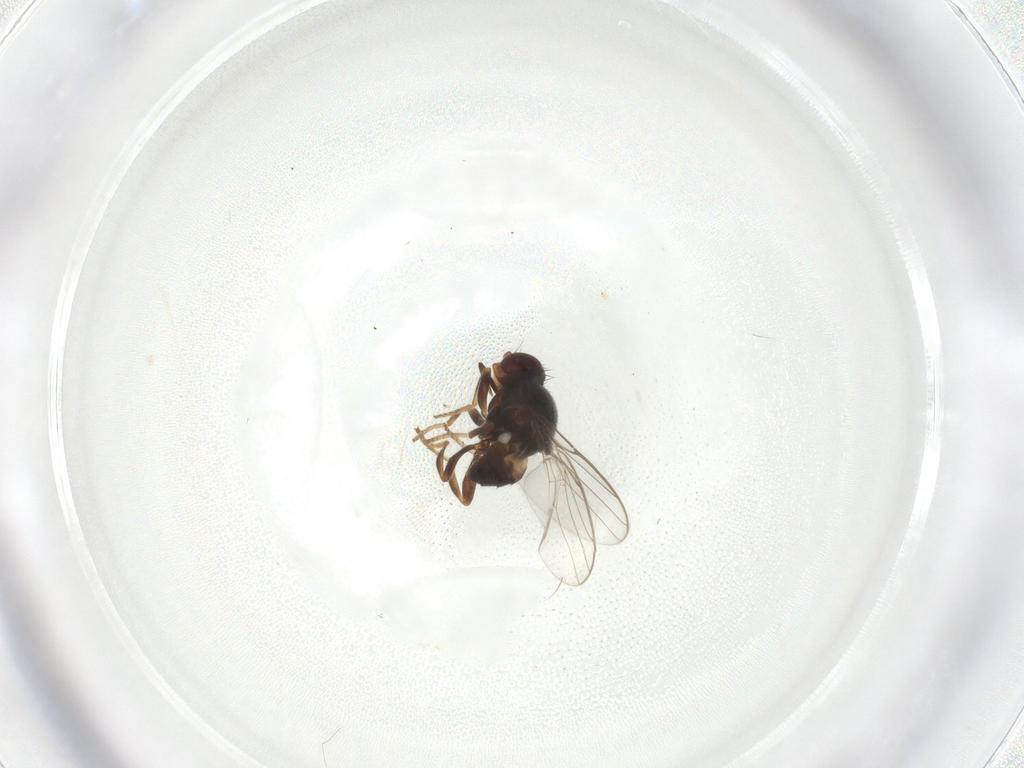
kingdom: Animalia
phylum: Arthropoda
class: Insecta
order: Diptera
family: Chloropidae
